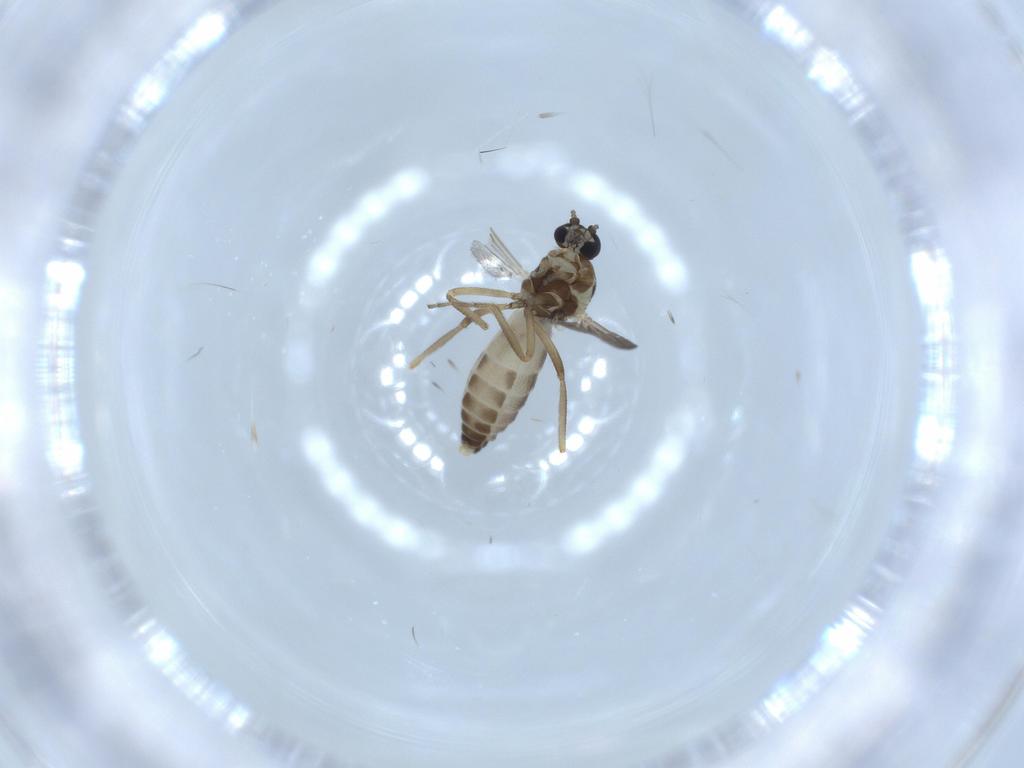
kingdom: Animalia
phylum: Arthropoda
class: Insecta
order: Diptera
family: Ceratopogonidae
